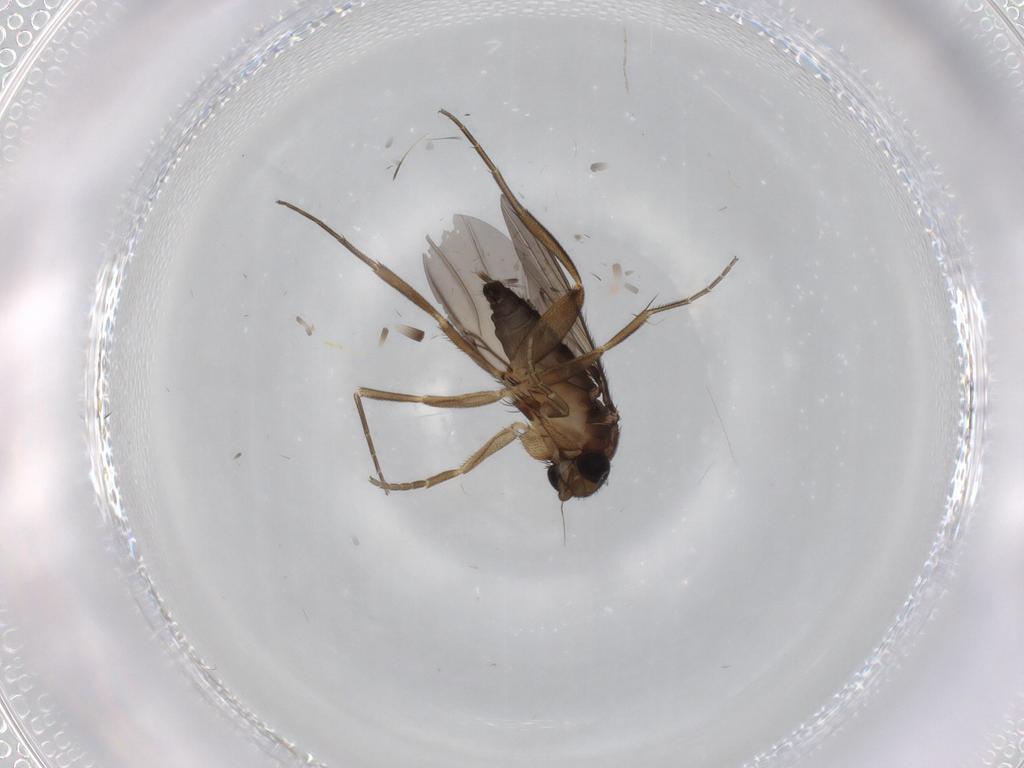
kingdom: Animalia
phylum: Arthropoda
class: Insecta
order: Diptera
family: Phoridae
